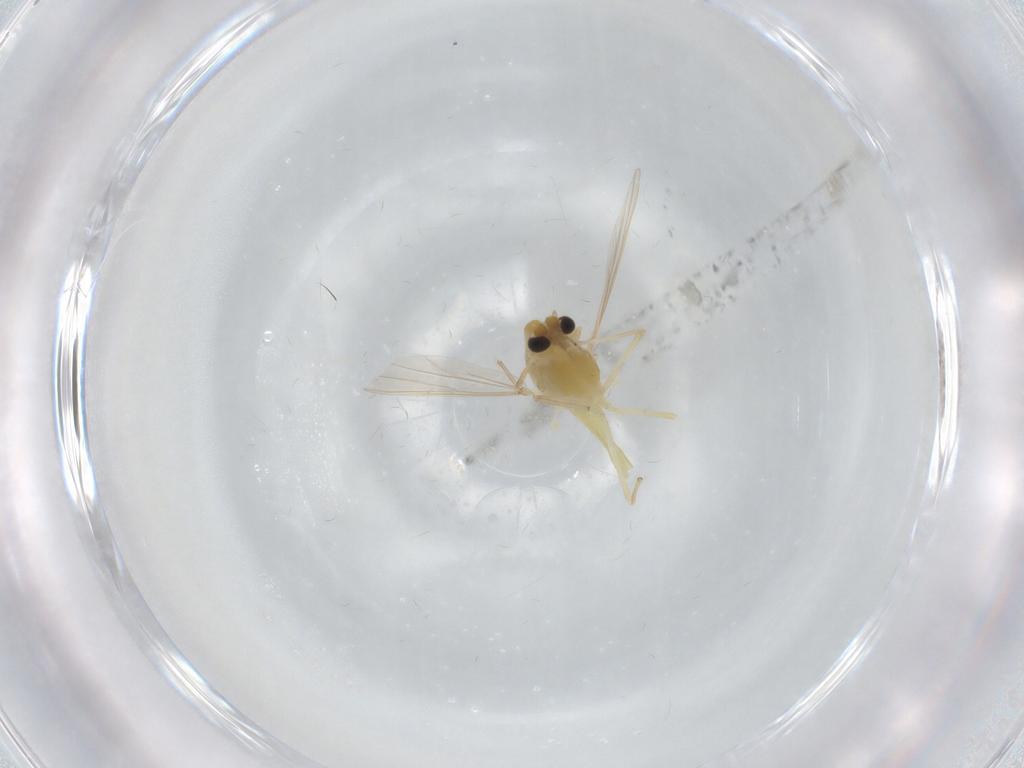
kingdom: Animalia
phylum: Arthropoda
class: Insecta
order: Diptera
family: Chironomidae
